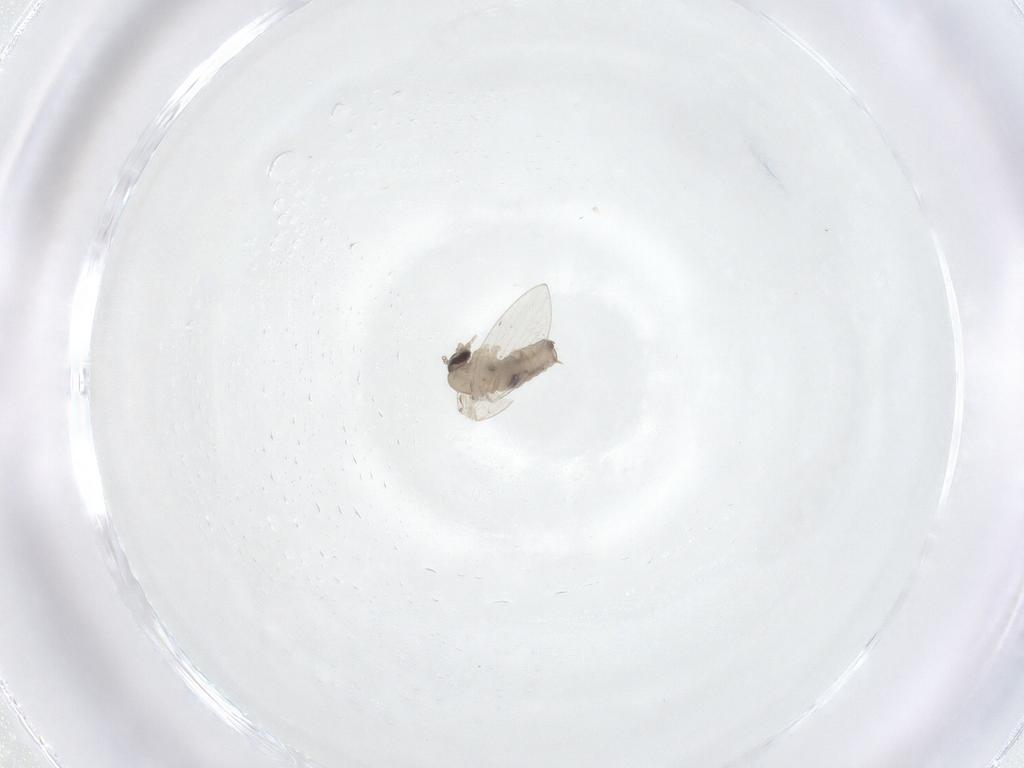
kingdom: Animalia
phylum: Arthropoda
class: Insecta
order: Diptera
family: Psychodidae
